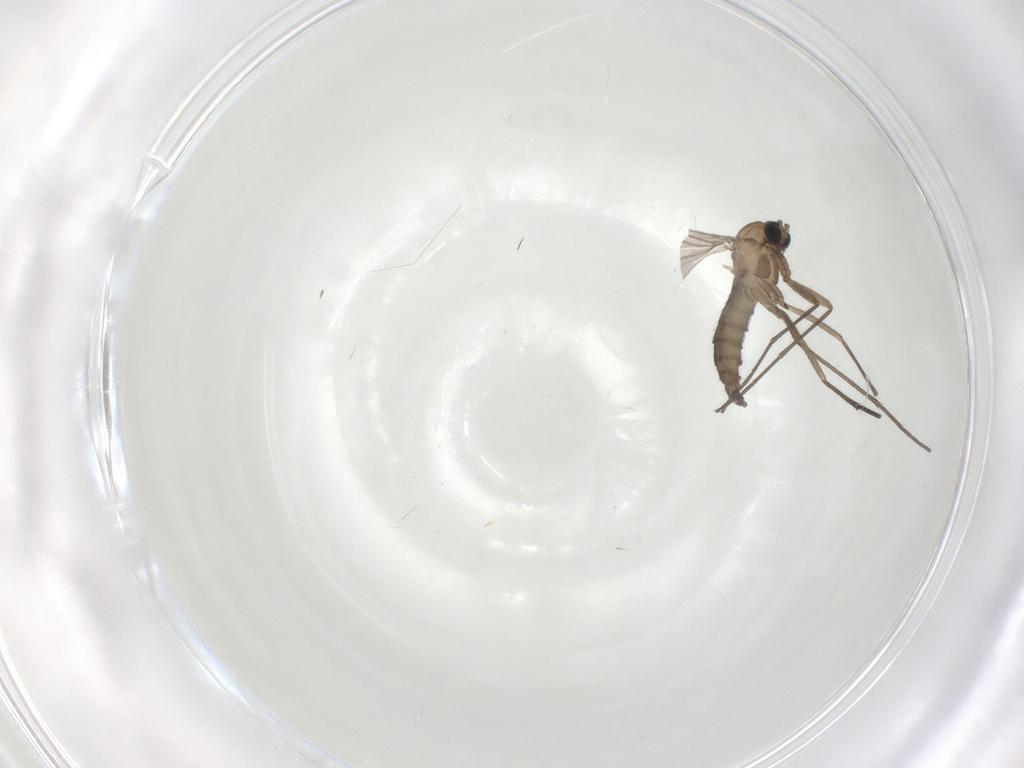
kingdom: Animalia
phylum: Arthropoda
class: Insecta
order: Diptera
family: Sciaridae
